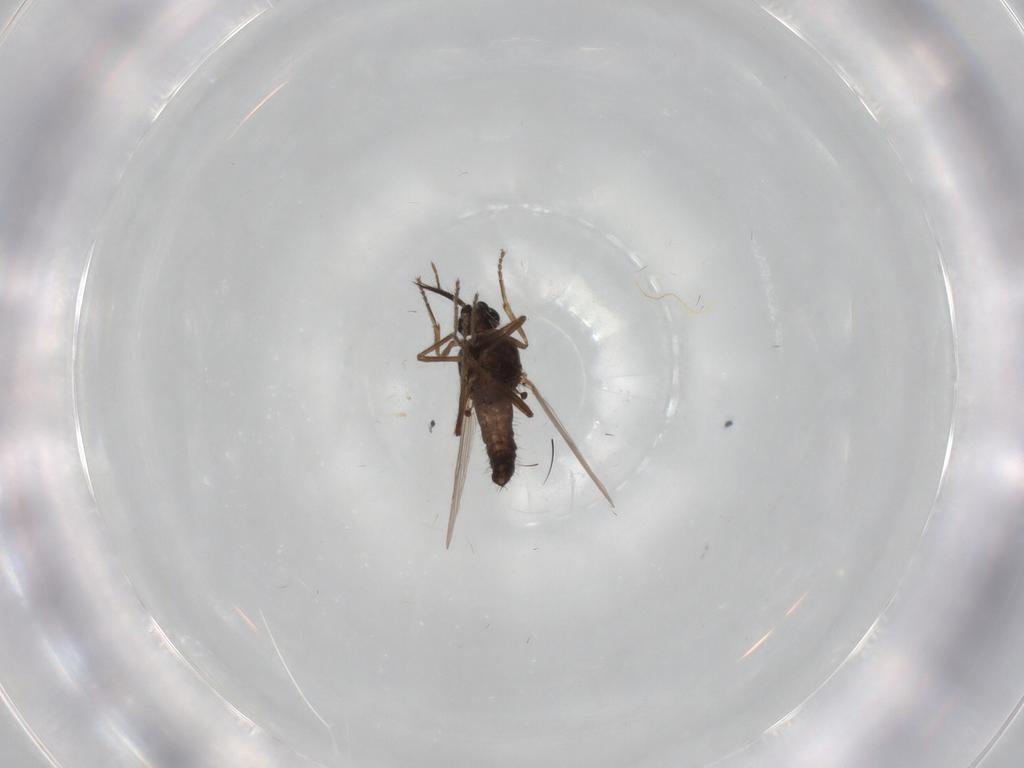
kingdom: Animalia
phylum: Arthropoda
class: Insecta
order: Diptera
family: Ceratopogonidae
